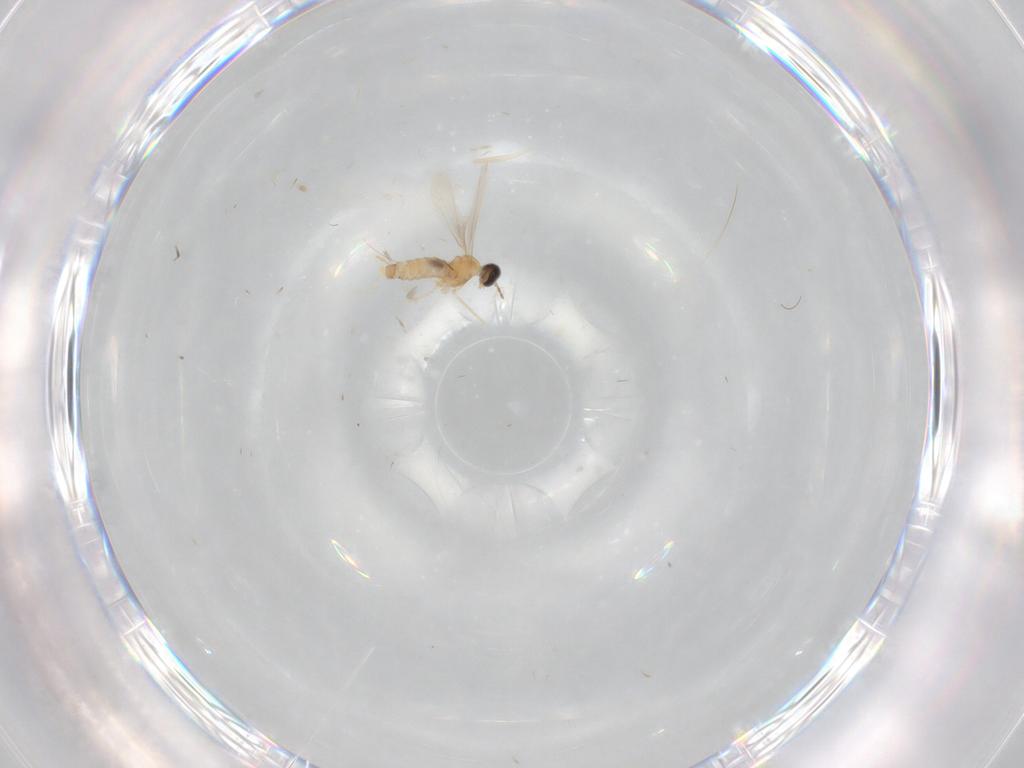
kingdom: Animalia
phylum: Arthropoda
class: Insecta
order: Diptera
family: Cecidomyiidae
